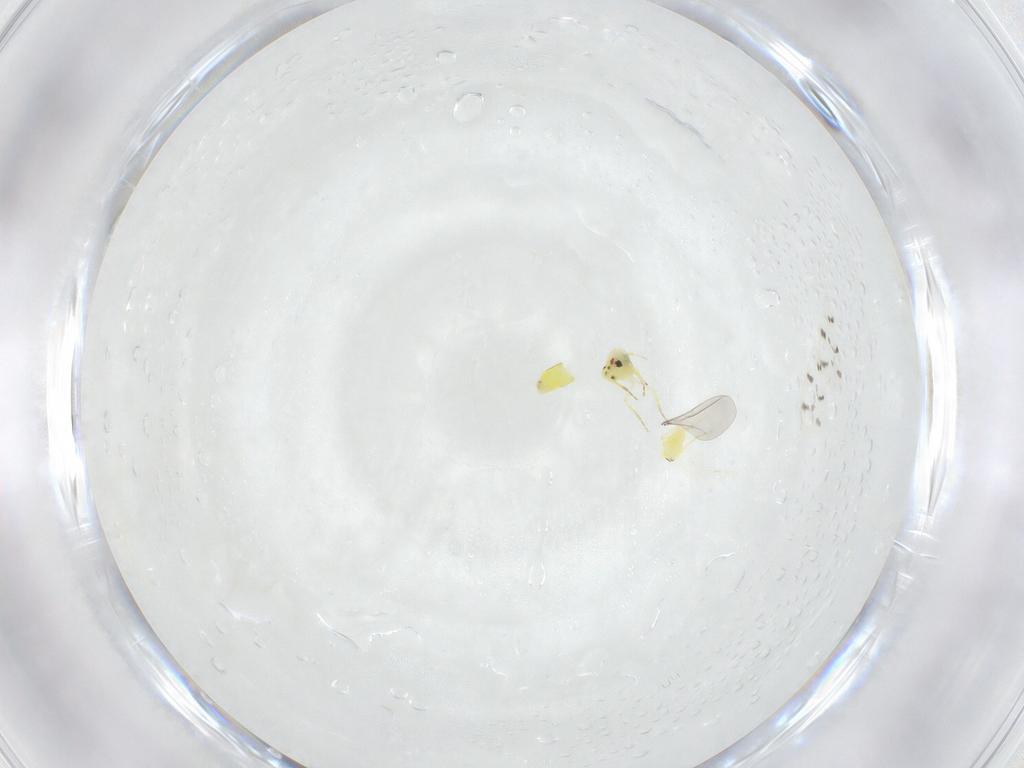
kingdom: Animalia
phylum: Arthropoda
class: Insecta
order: Hemiptera
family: Aleyrodidae
